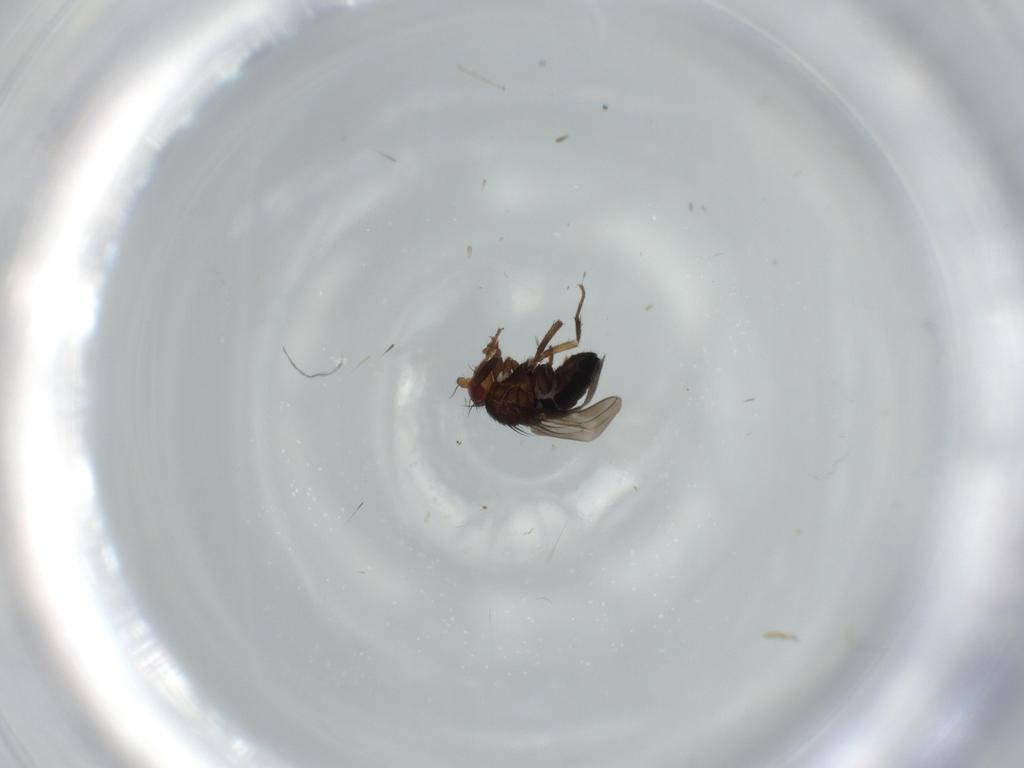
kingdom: Animalia
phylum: Arthropoda
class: Insecta
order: Diptera
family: Sphaeroceridae
